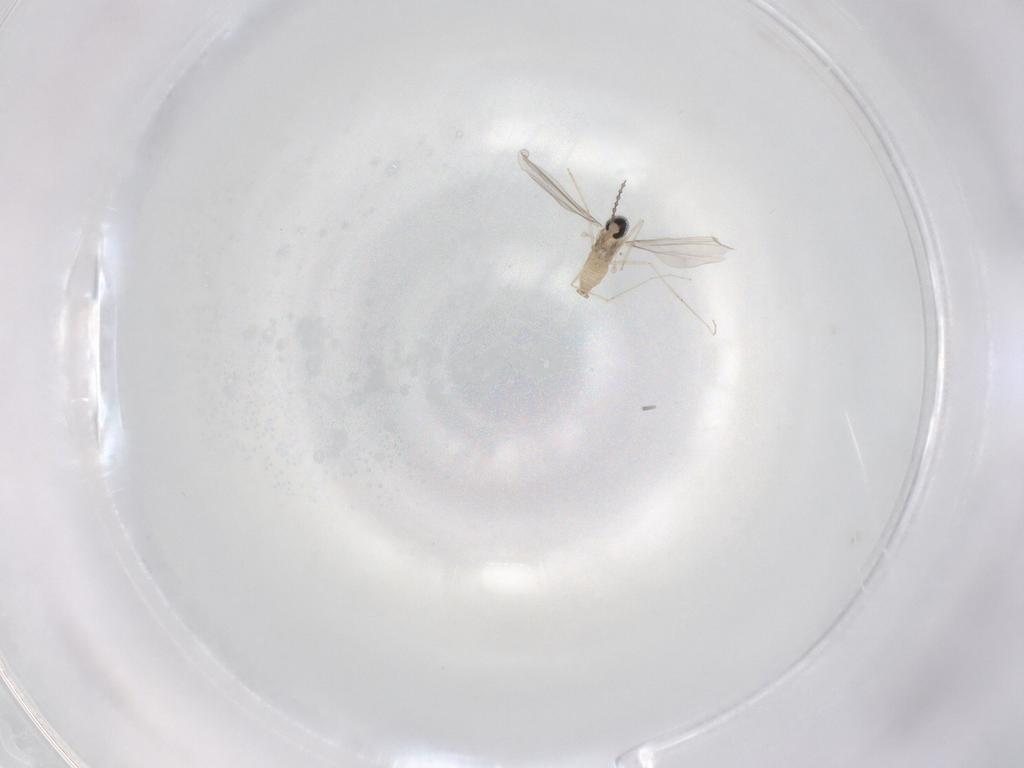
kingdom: Animalia
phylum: Arthropoda
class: Insecta
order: Diptera
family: Cecidomyiidae
